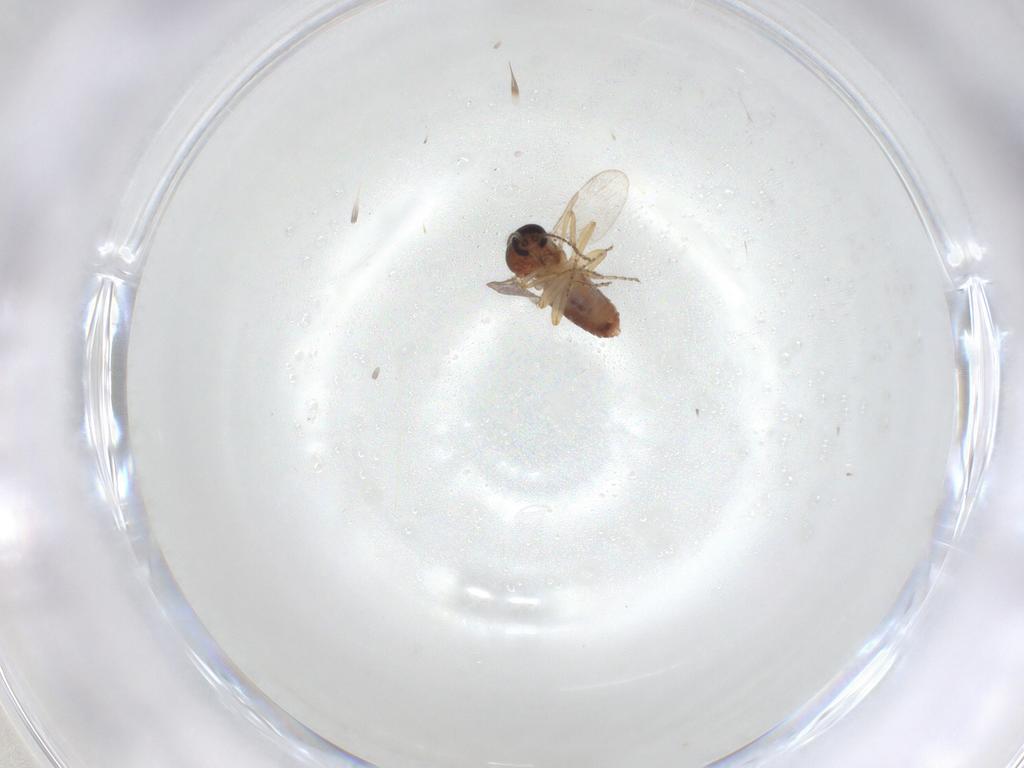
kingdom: Animalia
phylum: Arthropoda
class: Insecta
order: Diptera
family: Ceratopogonidae
